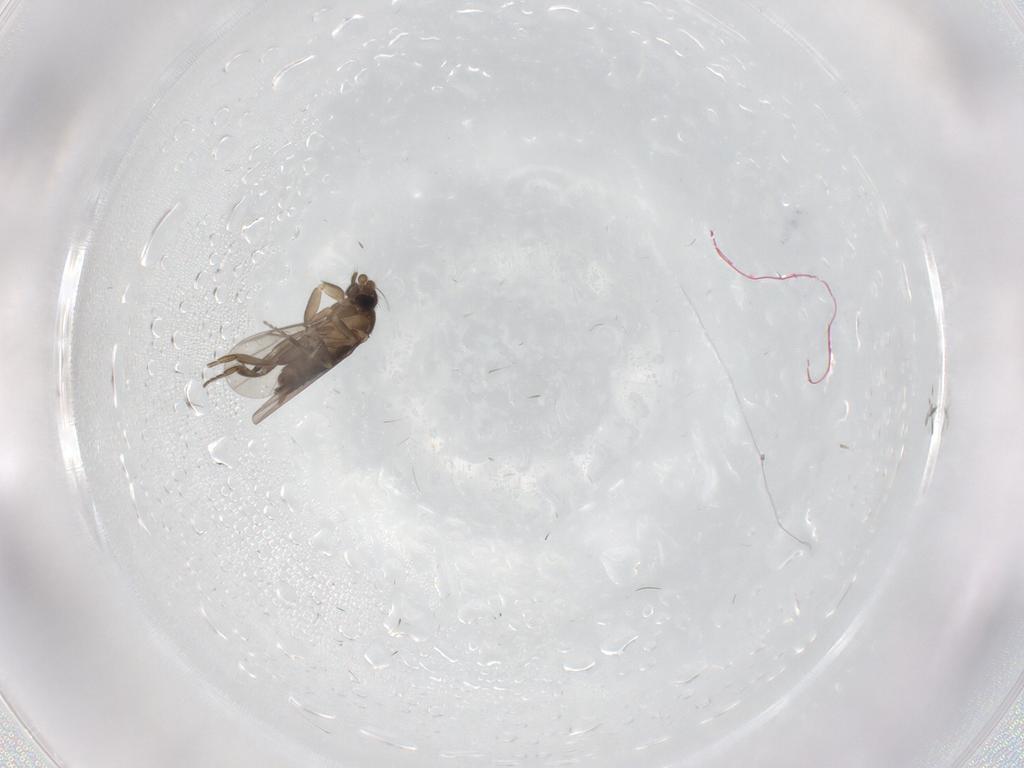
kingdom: Animalia
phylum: Arthropoda
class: Insecta
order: Diptera
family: Phoridae
